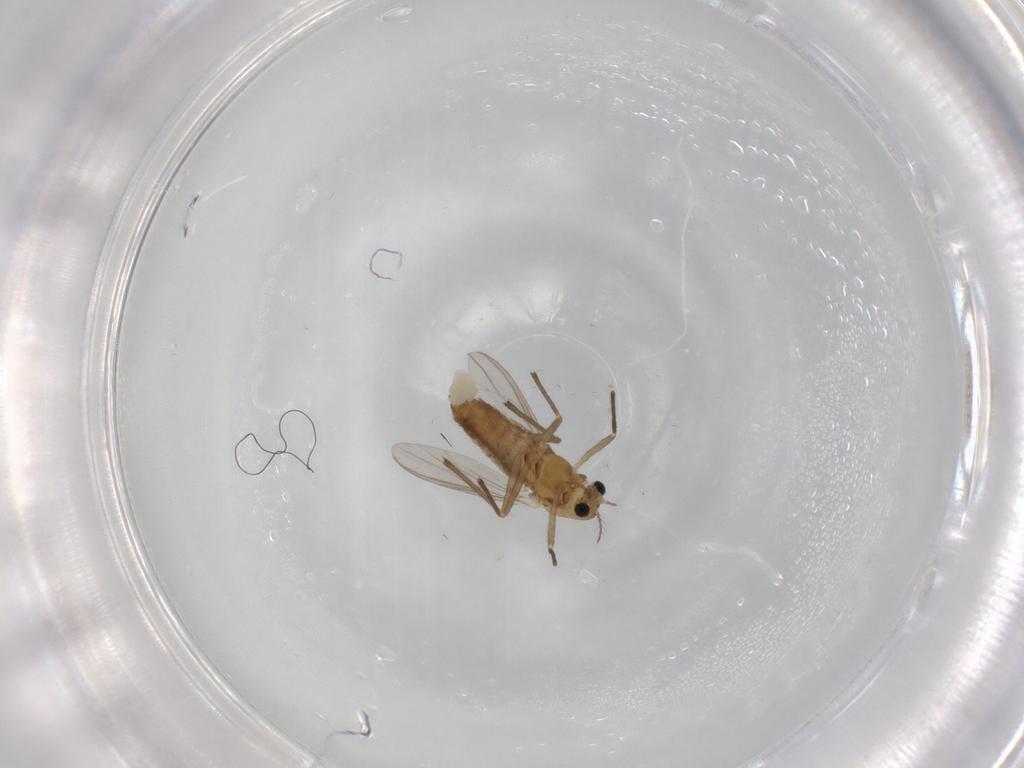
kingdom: Animalia
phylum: Arthropoda
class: Insecta
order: Diptera
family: Chironomidae
